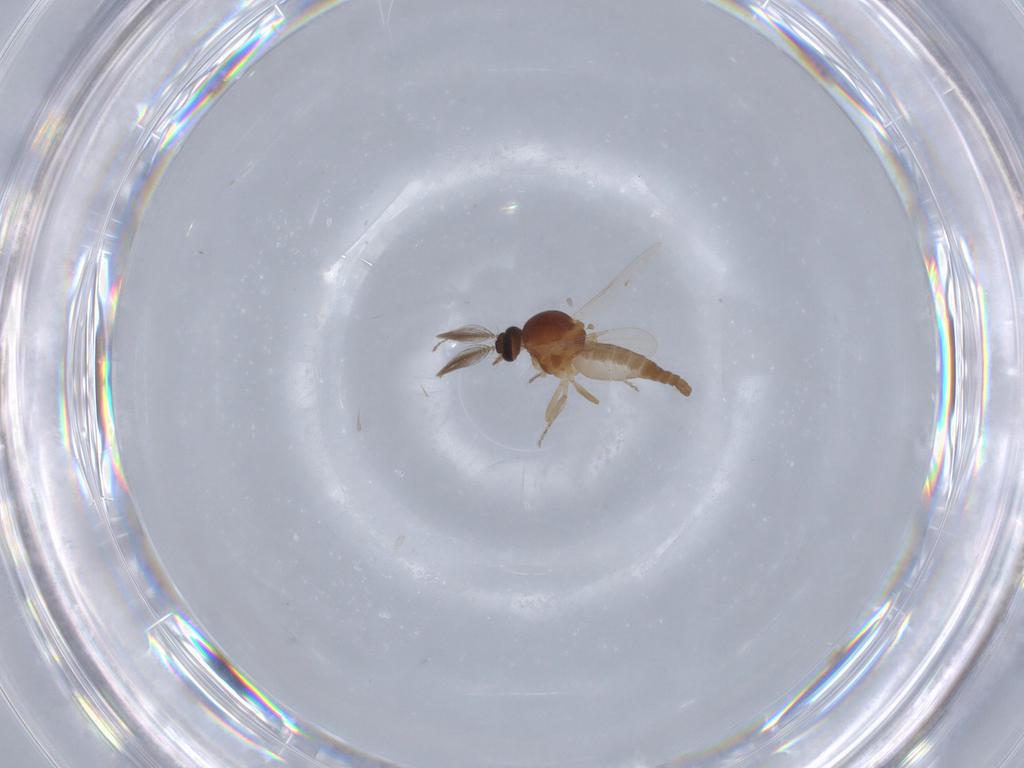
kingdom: Animalia
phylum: Arthropoda
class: Insecta
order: Diptera
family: Ceratopogonidae
